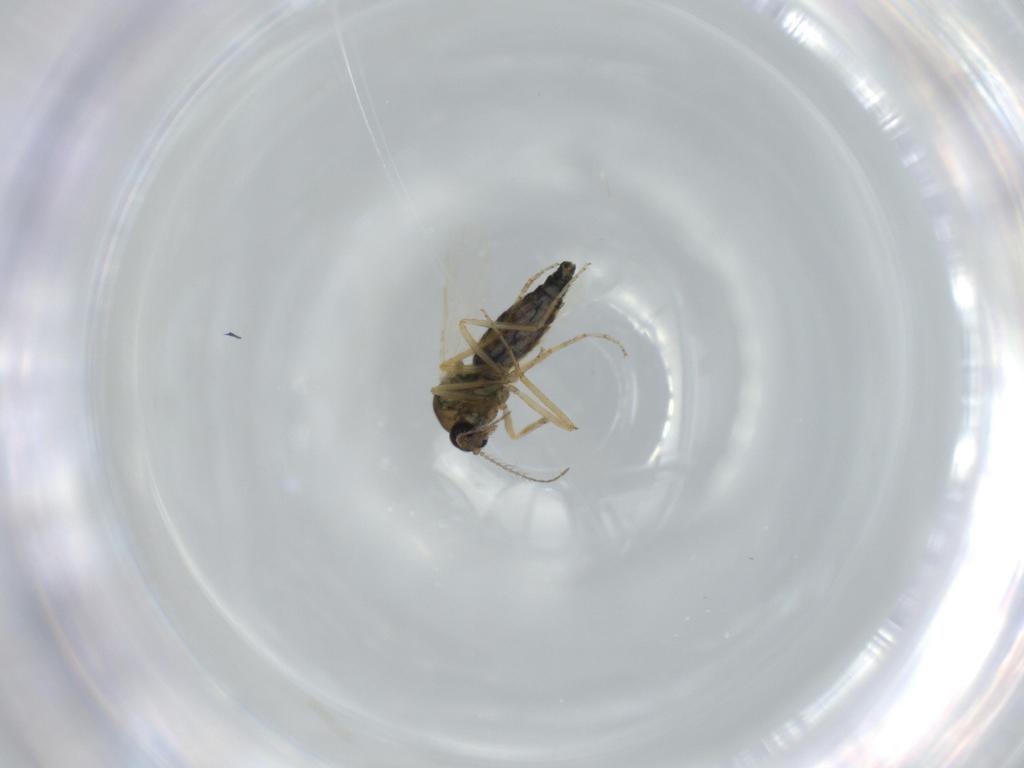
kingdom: Animalia
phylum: Arthropoda
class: Insecta
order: Diptera
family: Ceratopogonidae
